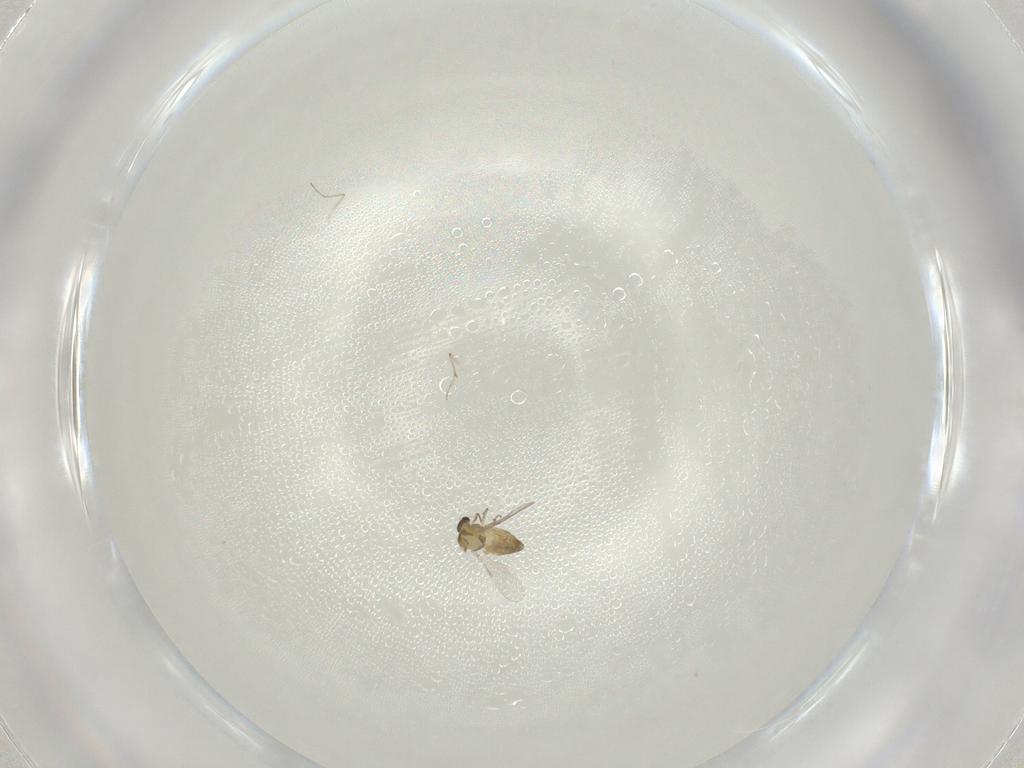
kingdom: Animalia
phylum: Arthropoda
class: Insecta
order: Diptera
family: Chironomidae
